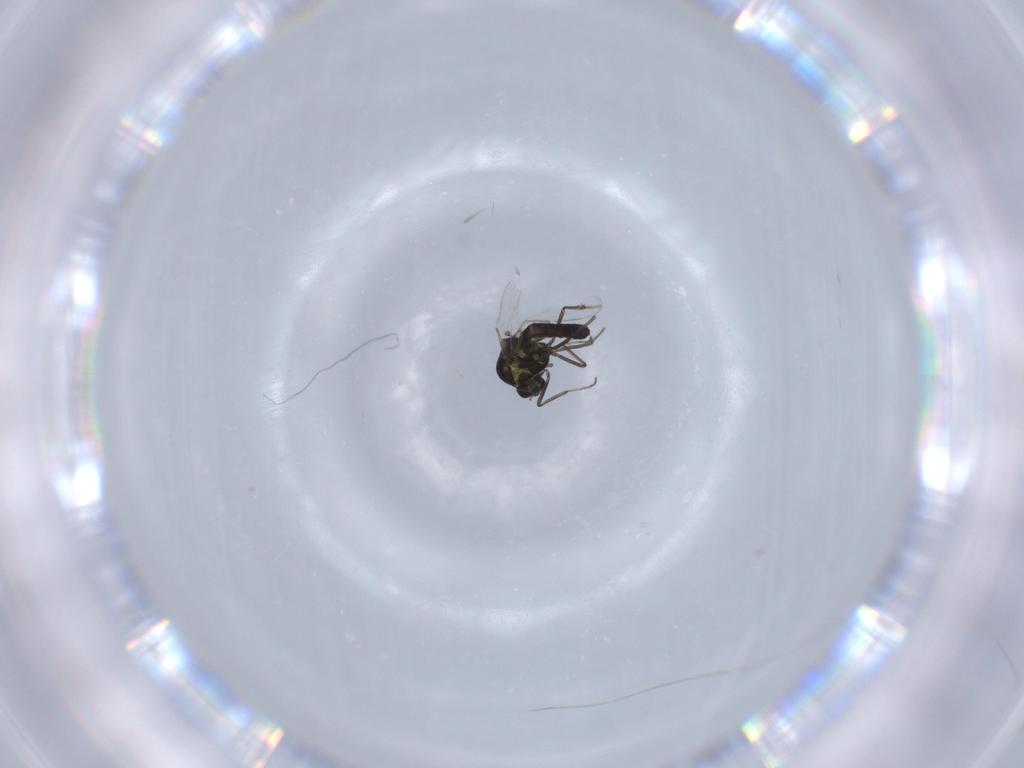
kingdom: Animalia
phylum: Arthropoda
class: Insecta
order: Diptera
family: Ceratopogonidae
